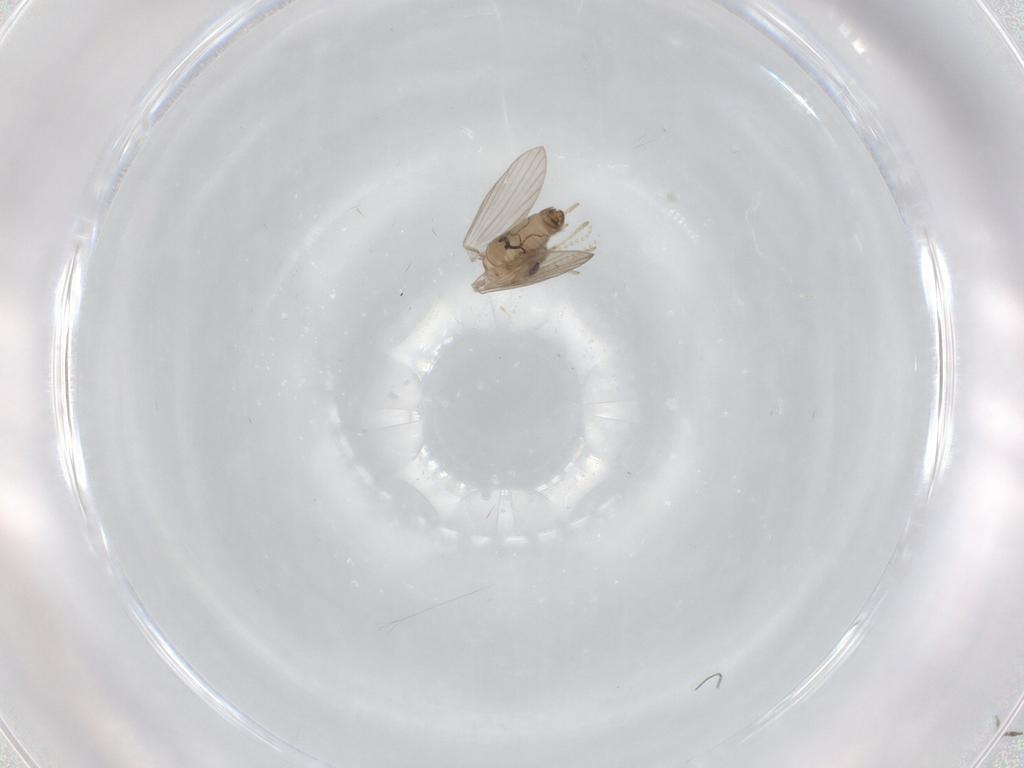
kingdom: Animalia
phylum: Arthropoda
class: Insecta
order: Diptera
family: Psychodidae
